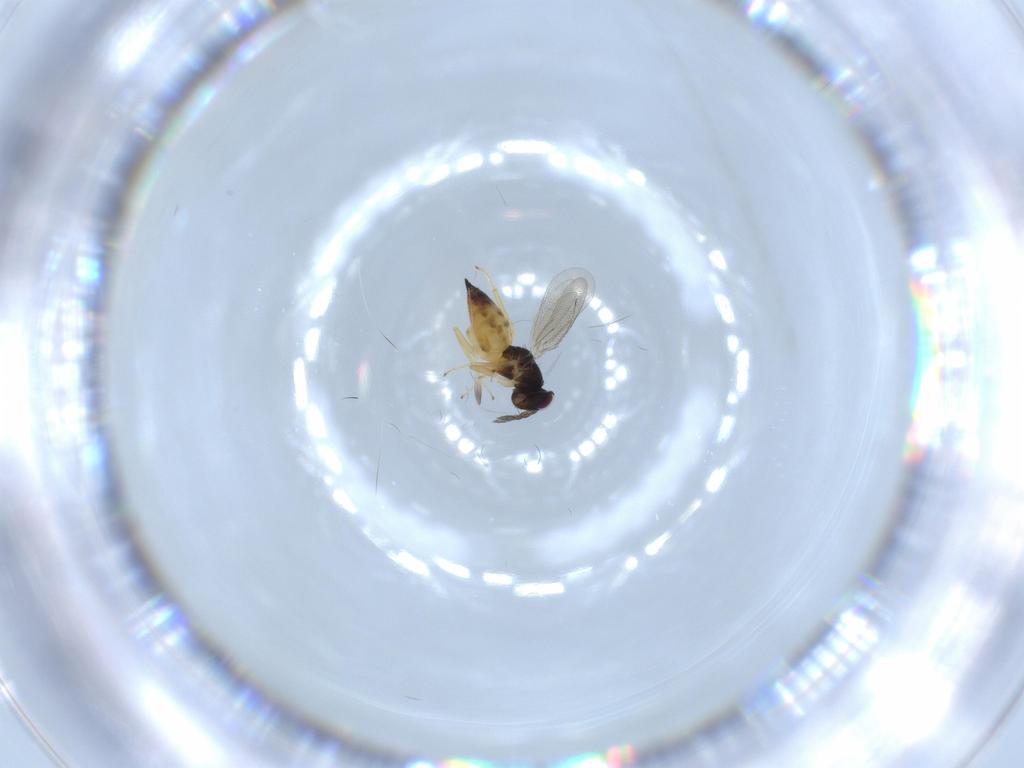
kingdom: Animalia
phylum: Arthropoda
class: Insecta
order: Hymenoptera
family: Eulophidae
